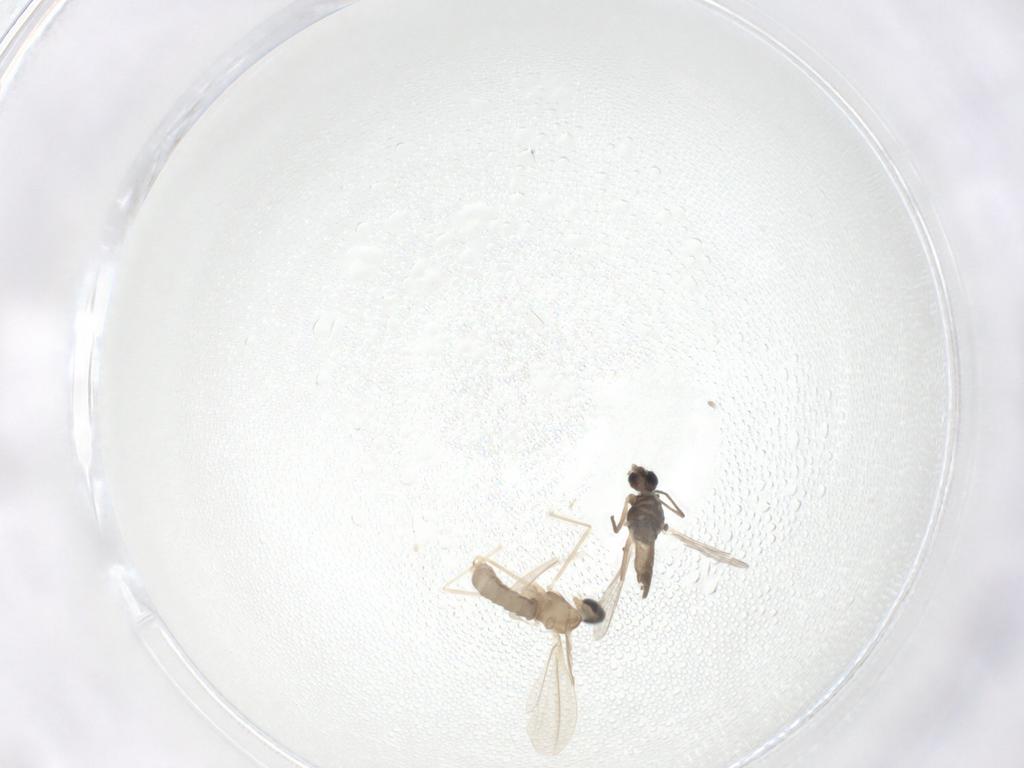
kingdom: Animalia
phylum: Arthropoda
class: Insecta
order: Diptera
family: Cecidomyiidae
